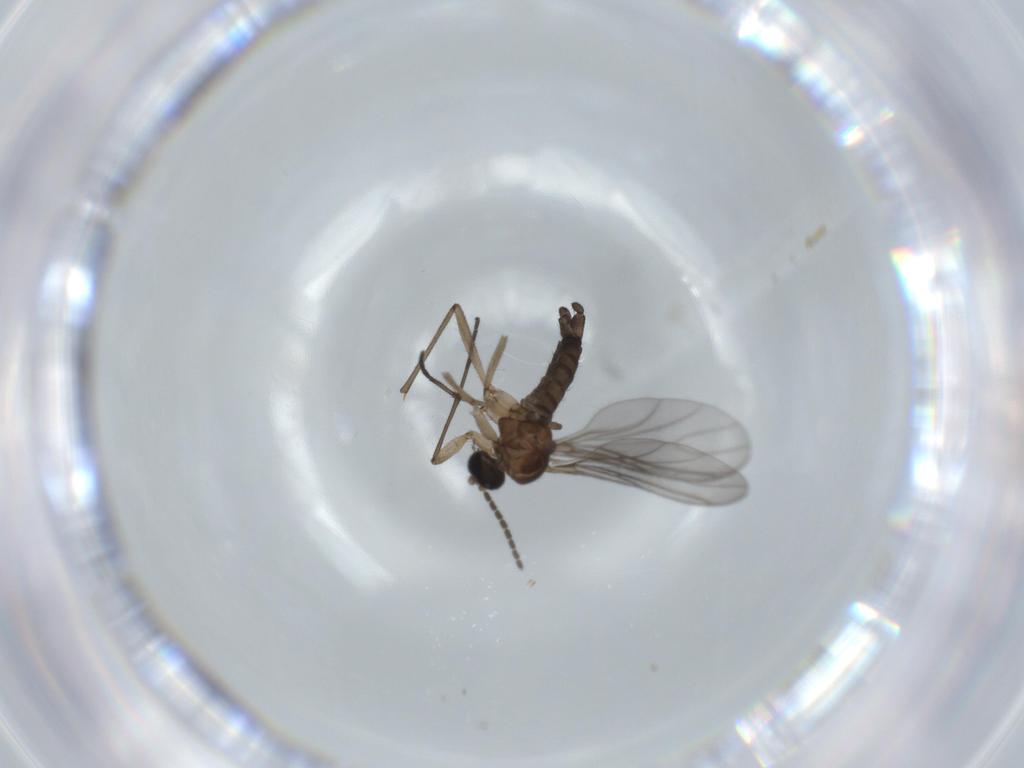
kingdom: Animalia
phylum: Arthropoda
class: Insecta
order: Diptera
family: Sciaridae
